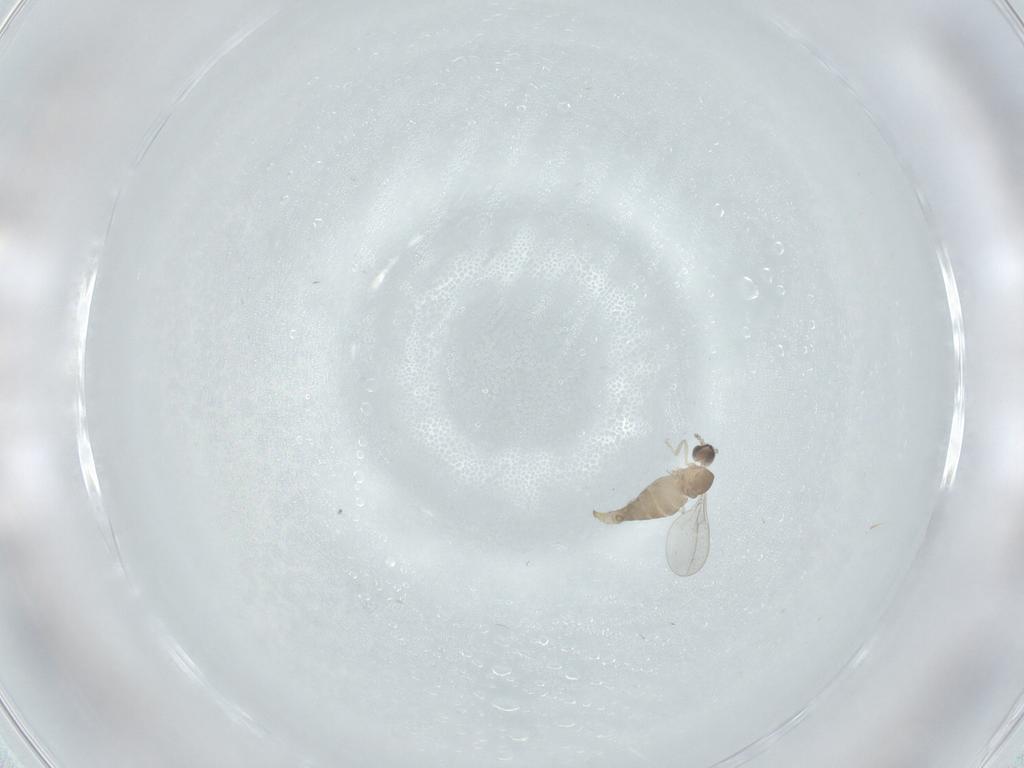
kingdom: Animalia
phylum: Arthropoda
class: Insecta
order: Diptera
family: Cecidomyiidae
